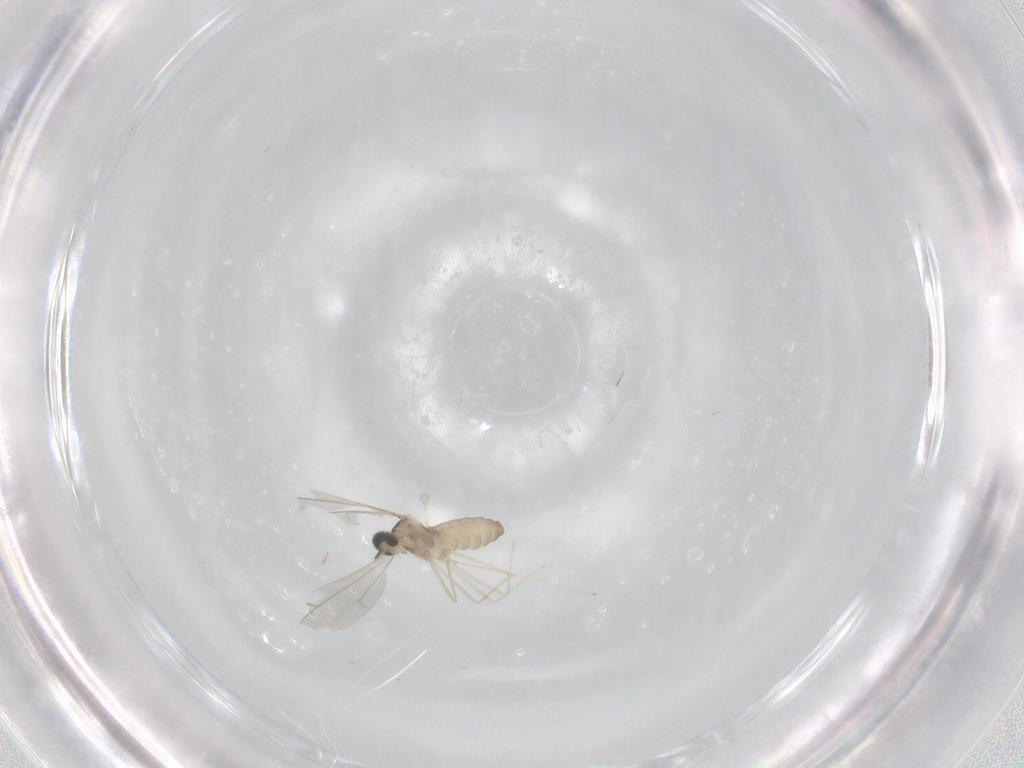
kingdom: Animalia
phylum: Arthropoda
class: Insecta
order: Diptera
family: Cecidomyiidae
